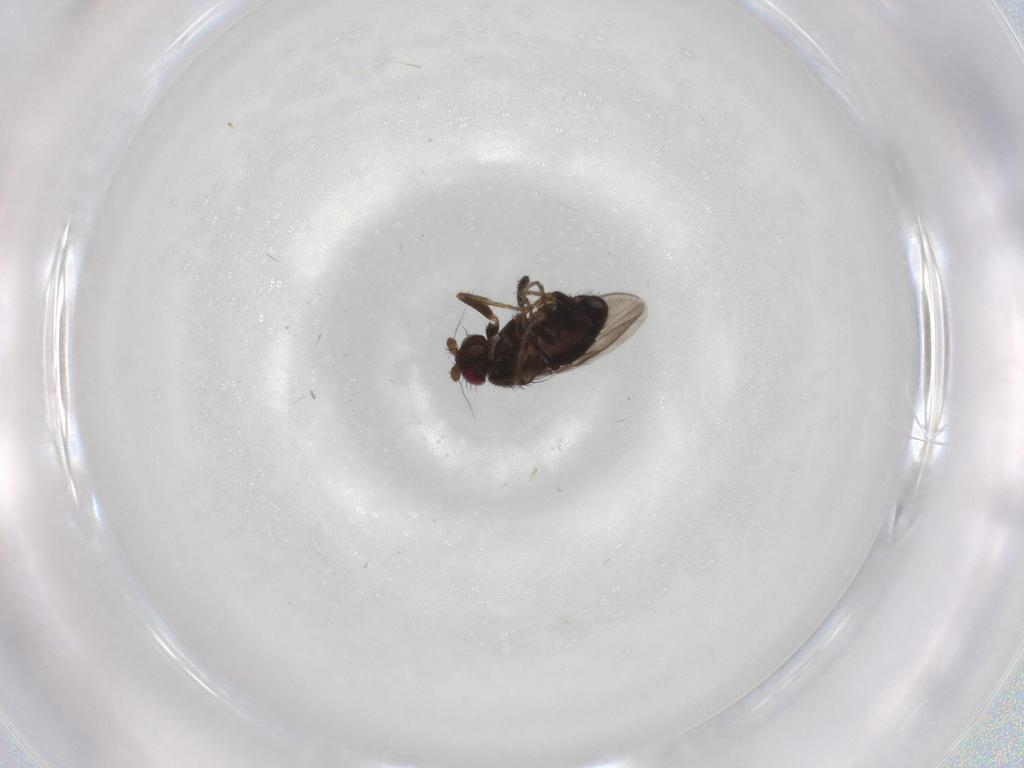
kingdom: Animalia
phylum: Arthropoda
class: Insecta
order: Diptera
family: Sphaeroceridae
